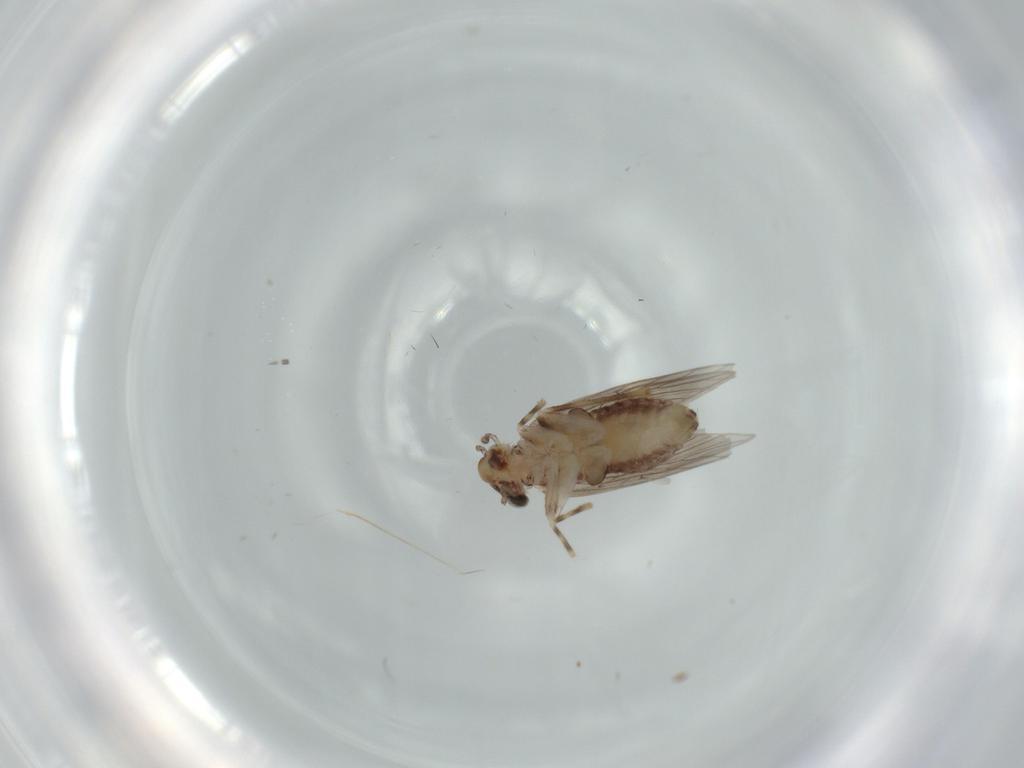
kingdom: Animalia
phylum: Arthropoda
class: Insecta
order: Psocodea
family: Lepidopsocidae
